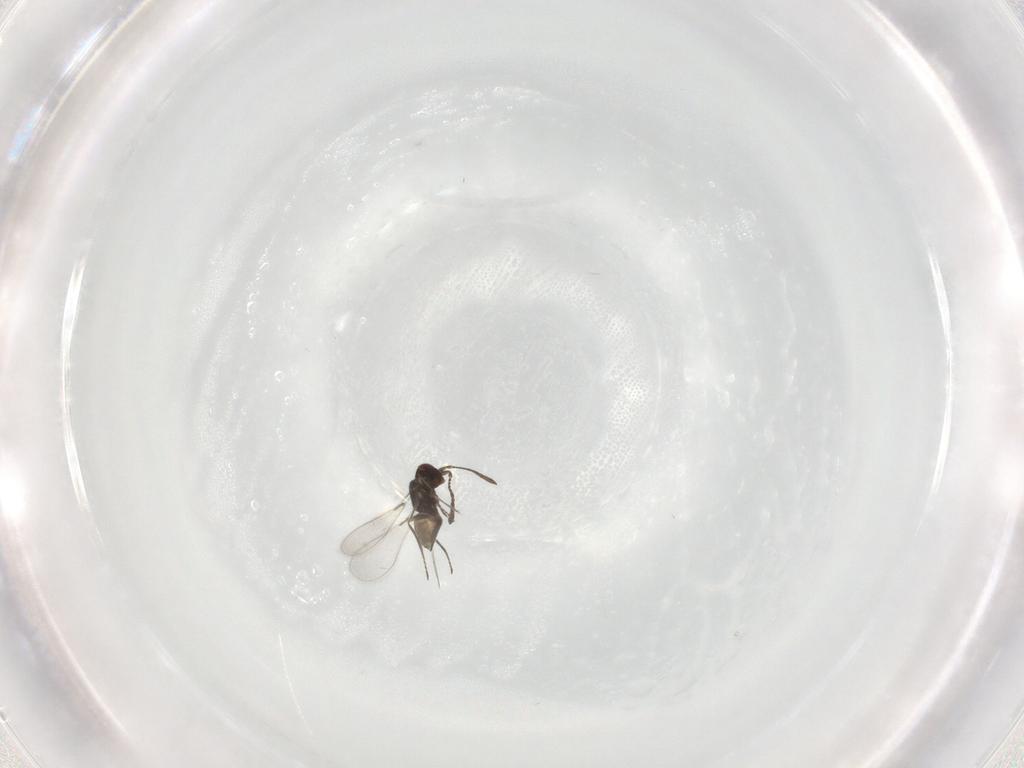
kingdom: Animalia
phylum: Arthropoda
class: Insecta
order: Hymenoptera
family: Mymaridae
